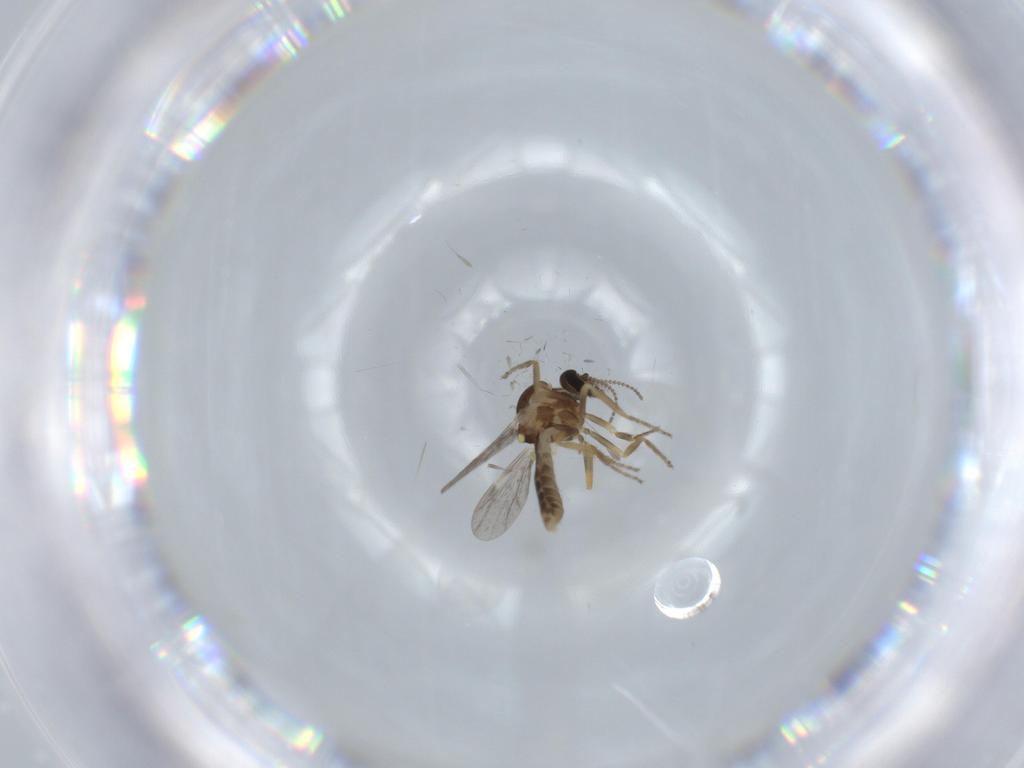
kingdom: Animalia
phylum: Arthropoda
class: Insecta
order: Diptera
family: Ceratopogonidae
